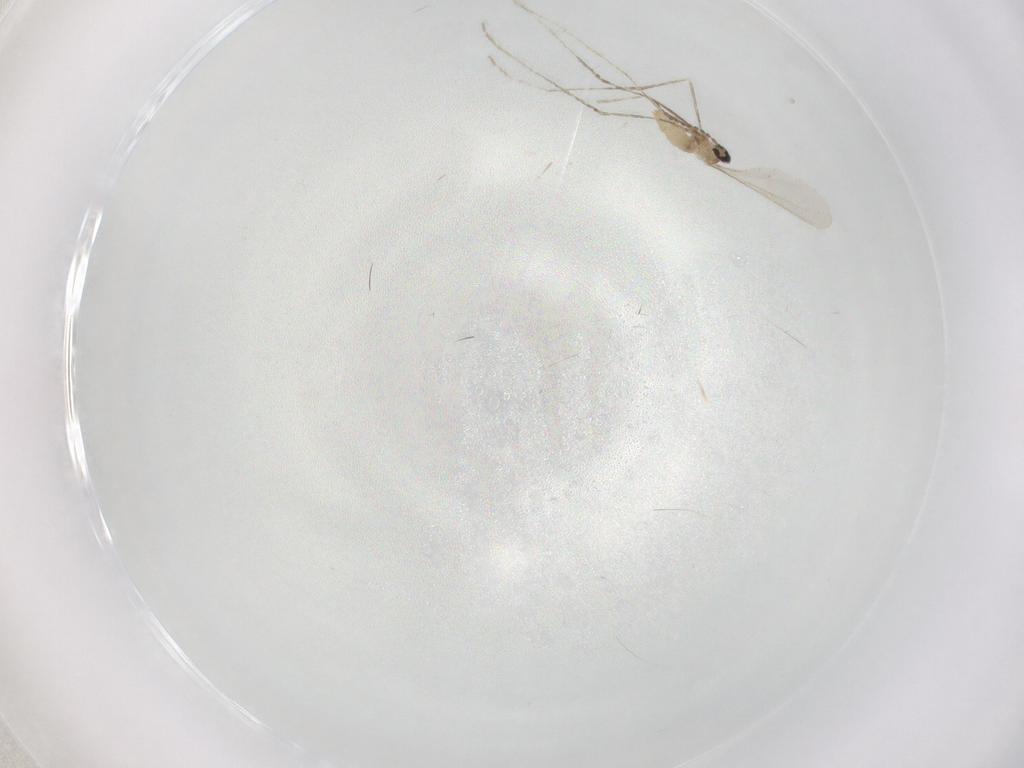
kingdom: Animalia
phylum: Arthropoda
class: Insecta
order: Diptera
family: Cecidomyiidae
